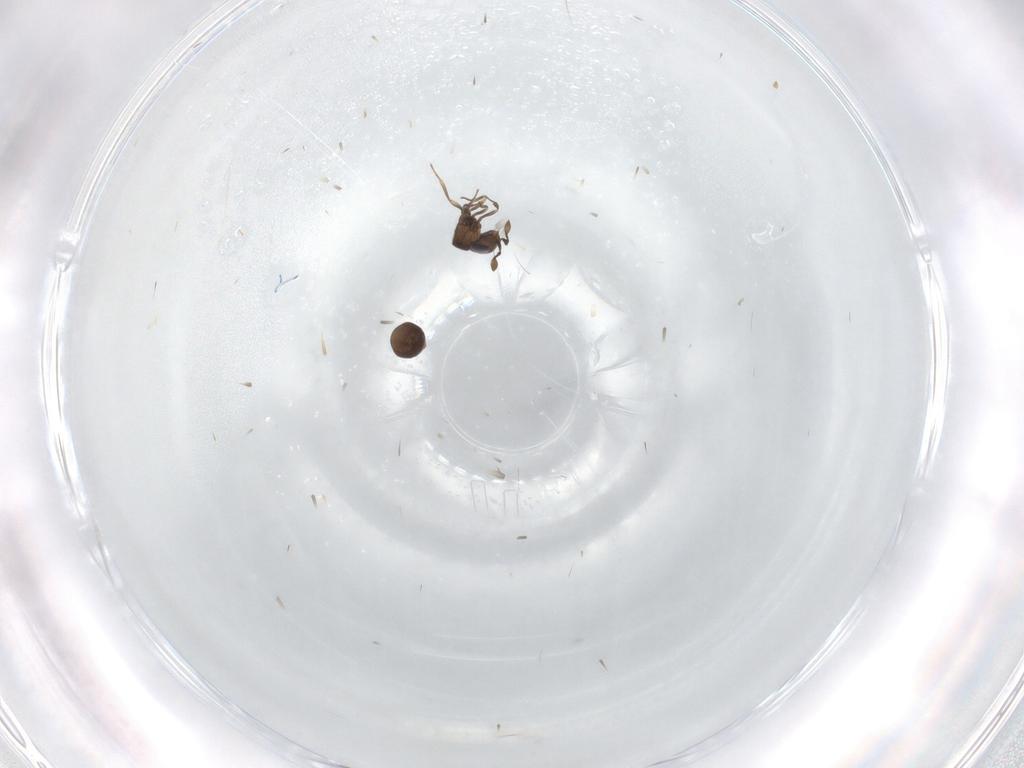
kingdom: Animalia
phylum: Arthropoda
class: Insecta
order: Hymenoptera
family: Scelionidae
